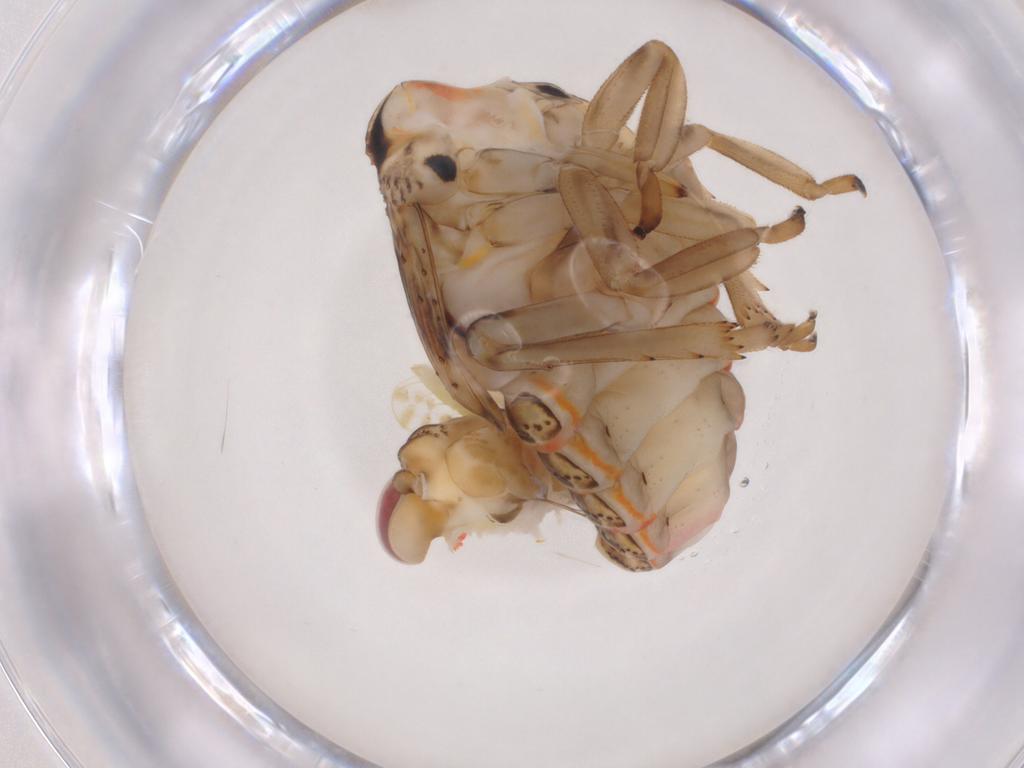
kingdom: Animalia
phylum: Arthropoda
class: Insecta
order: Hemiptera
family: Issidae
